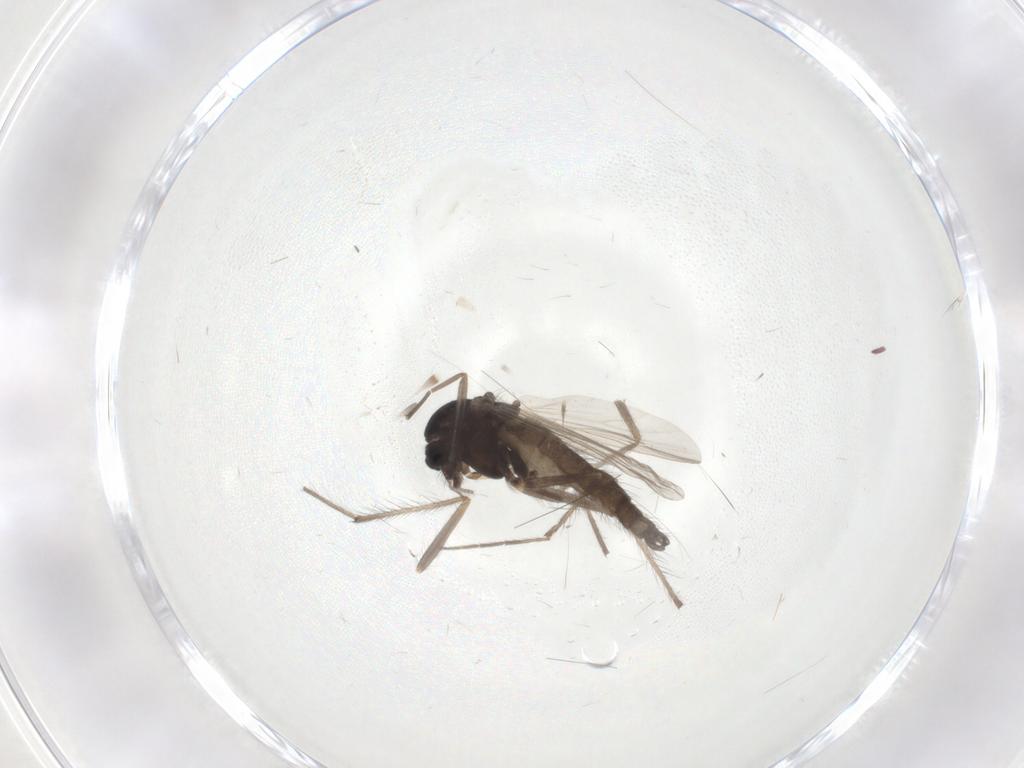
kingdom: Animalia
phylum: Arthropoda
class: Insecta
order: Diptera
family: Chironomidae
